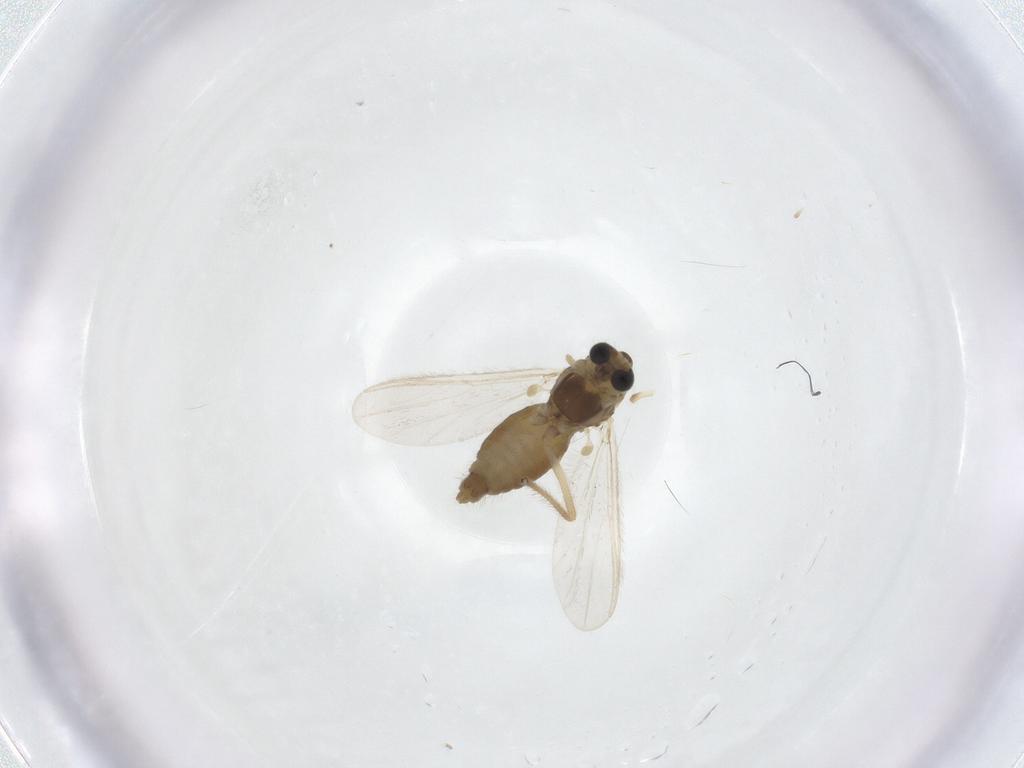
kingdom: Animalia
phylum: Arthropoda
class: Insecta
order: Diptera
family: Chironomidae
